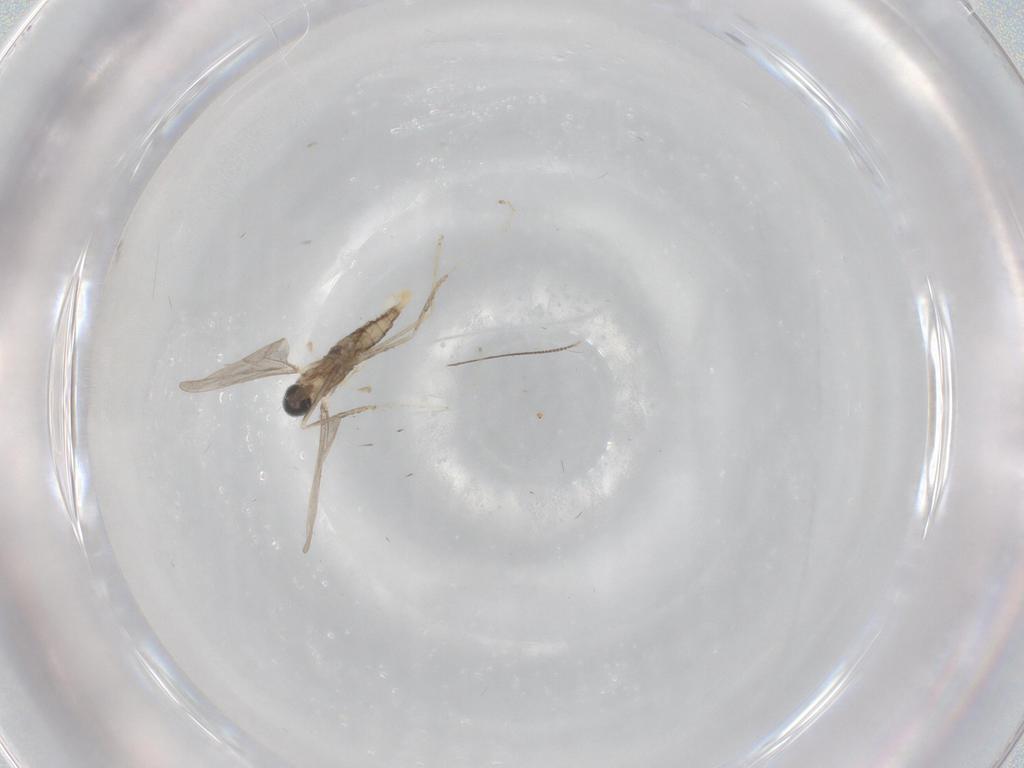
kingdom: Animalia
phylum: Arthropoda
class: Insecta
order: Diptera
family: Cecidomyiidae
